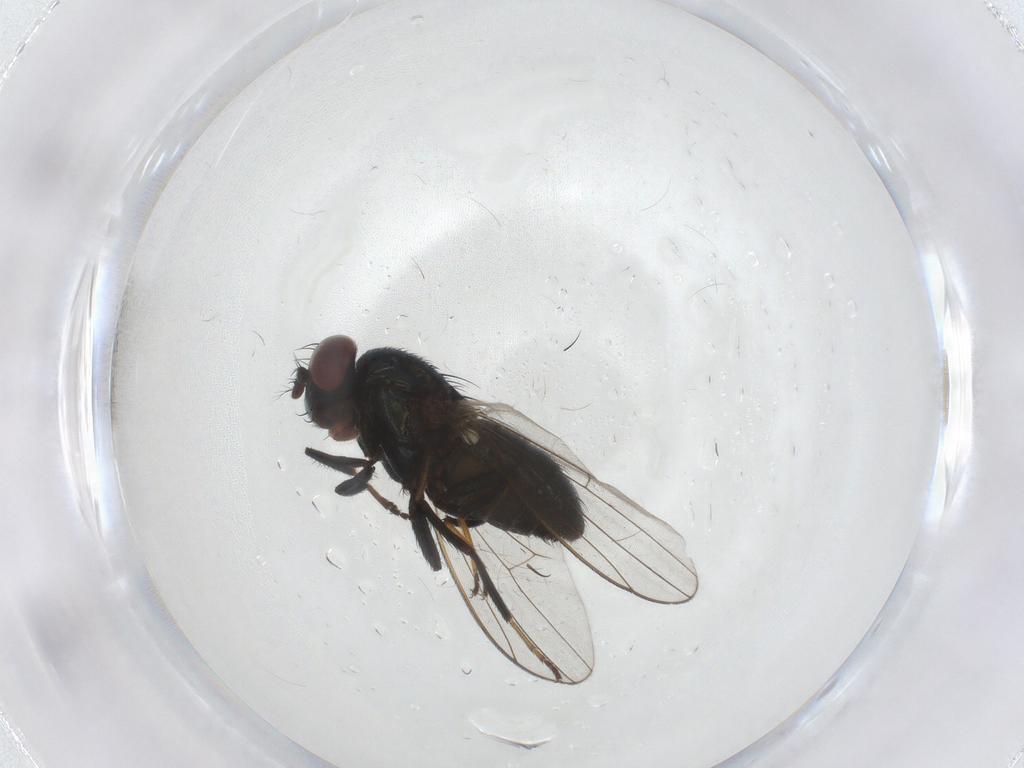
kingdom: Animalia
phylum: Arthropoda
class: Insecta
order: Diptera
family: Ephydridae
